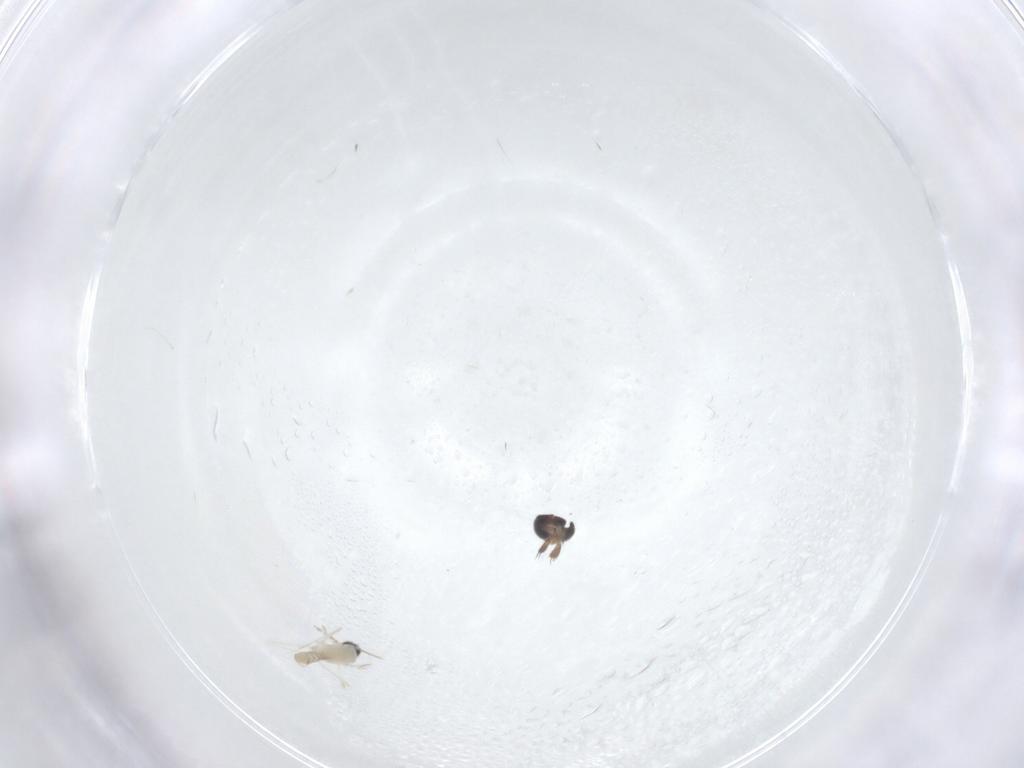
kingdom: Animalia
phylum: Arthropoda
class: Insecta
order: Diptera
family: Phoridae
